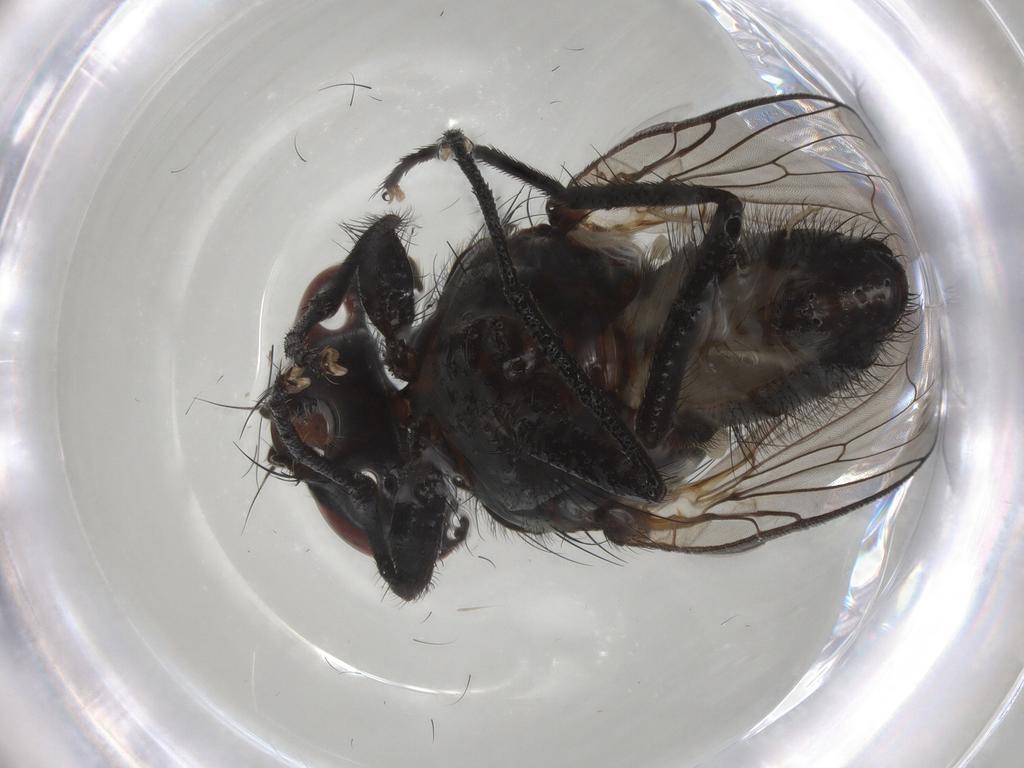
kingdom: Animalia
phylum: Arthropoda
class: Insecta
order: Diptera
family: Anthomyiidae
